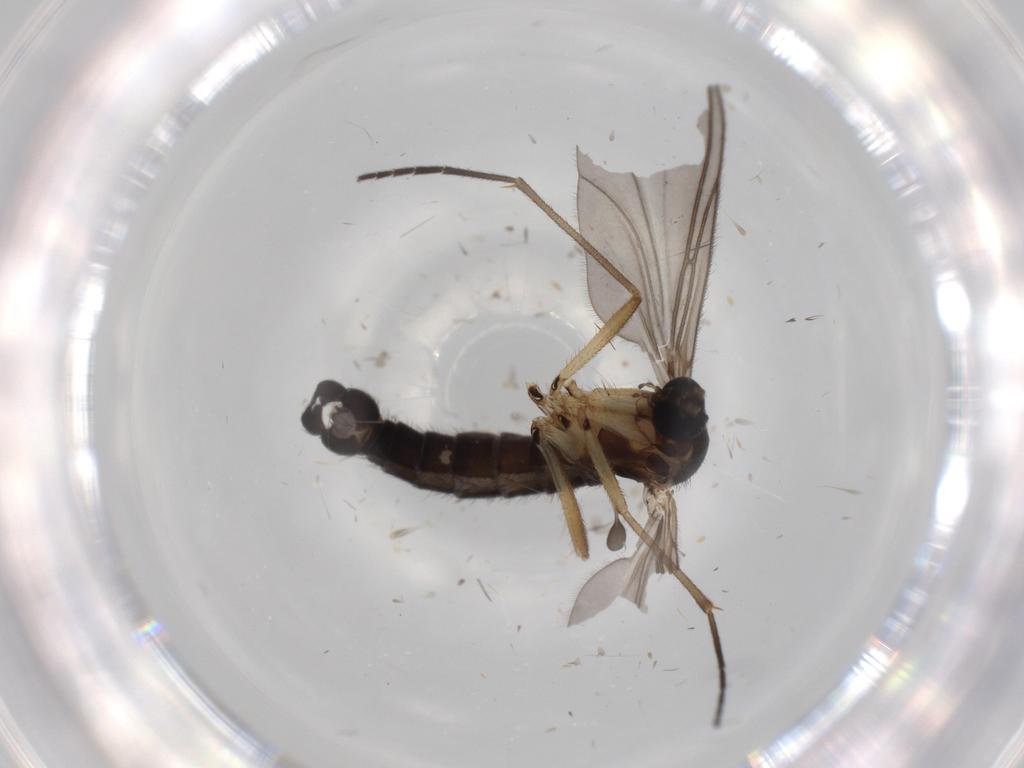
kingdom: Animalia
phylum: Arthropoda
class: Insecta
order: Diptera
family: Sciaridae
